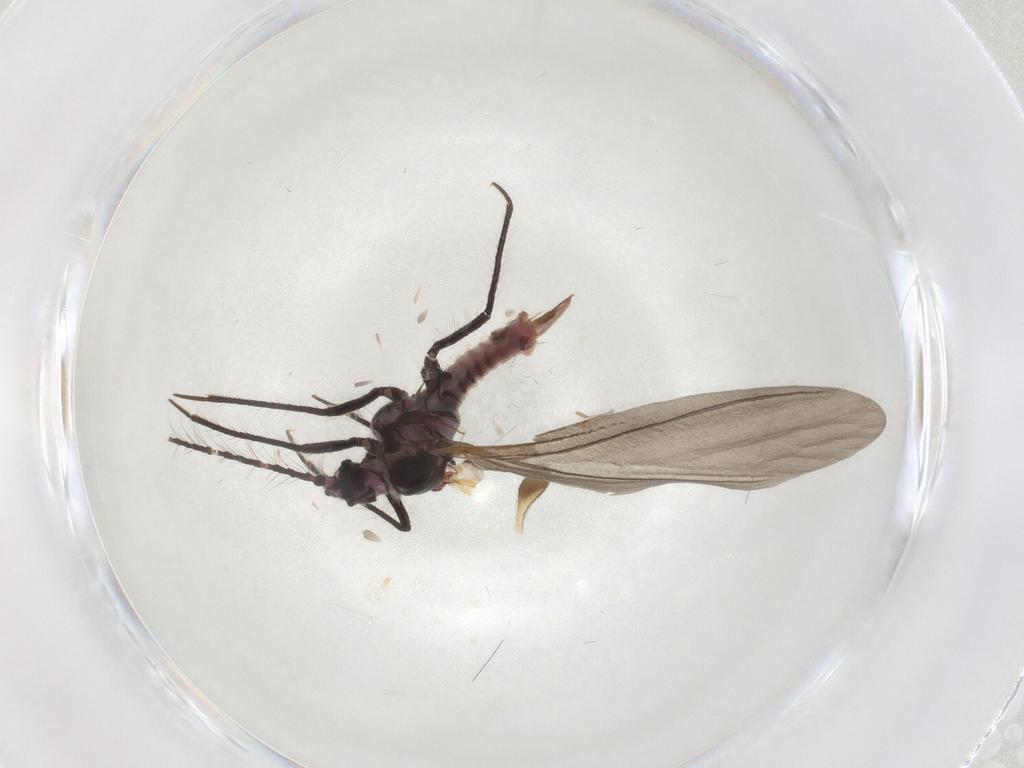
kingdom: Animalia
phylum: Arthropoda
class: Insecta
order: Hemiptera
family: Putoidae
